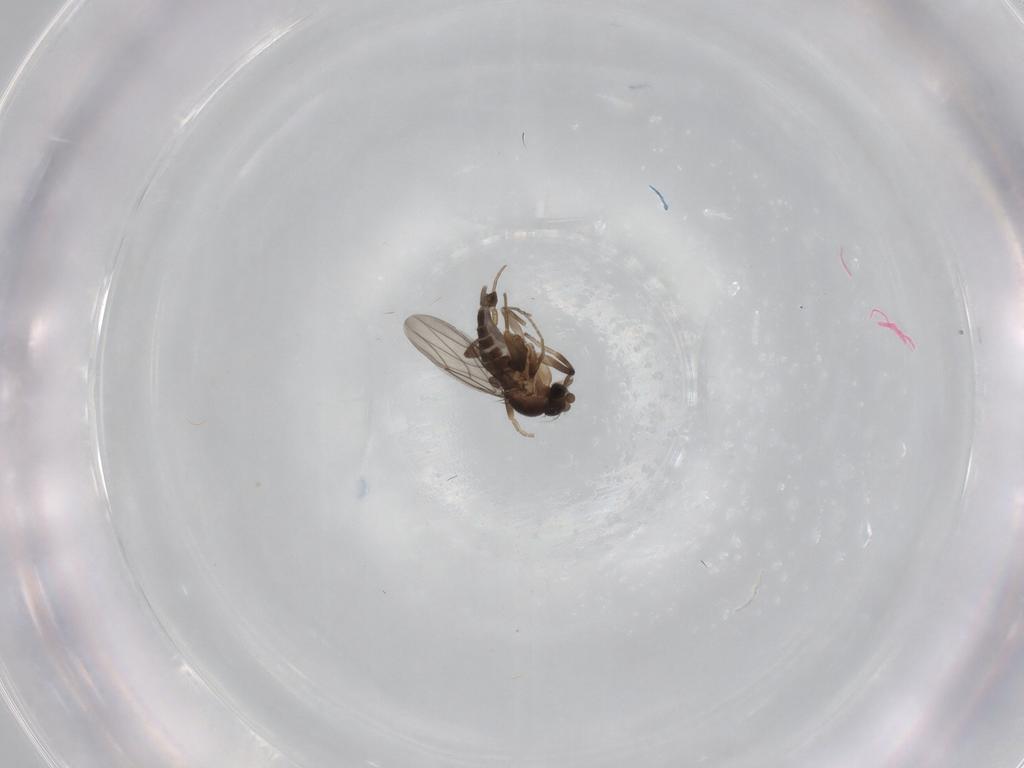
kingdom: Animalia
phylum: Arthropoda
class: Insecta
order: Diptera
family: Phoridae
